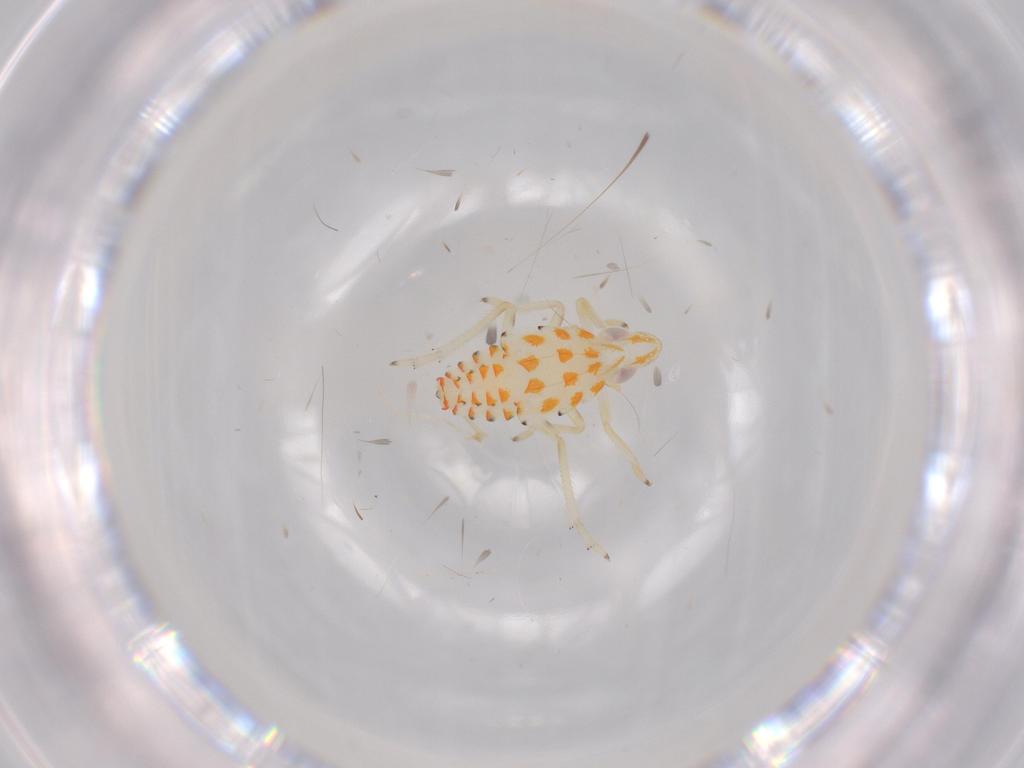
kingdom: Animalia
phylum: Arthropoda
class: Insecta
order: Hemiptera
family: Tropiduchidae
